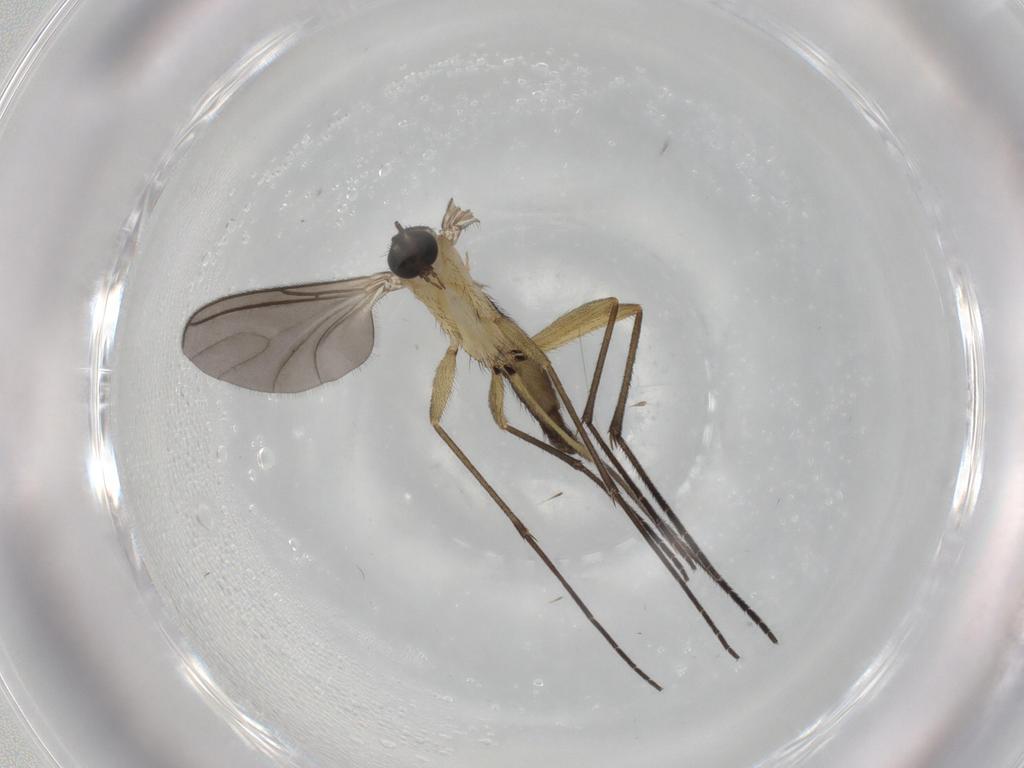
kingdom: Animalia
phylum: Arthropoda
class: Insecta
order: Diptera
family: Sciaridae
